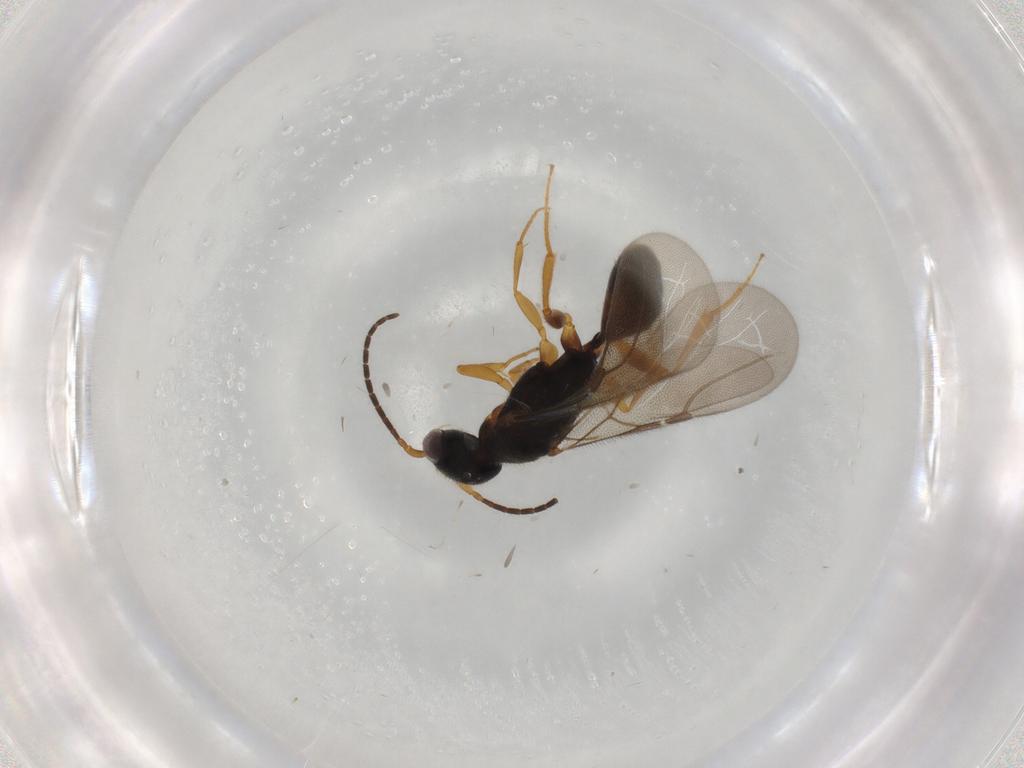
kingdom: Animalia
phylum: Arthropoda
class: Insecta
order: Hymenoptera
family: Bethylidae
